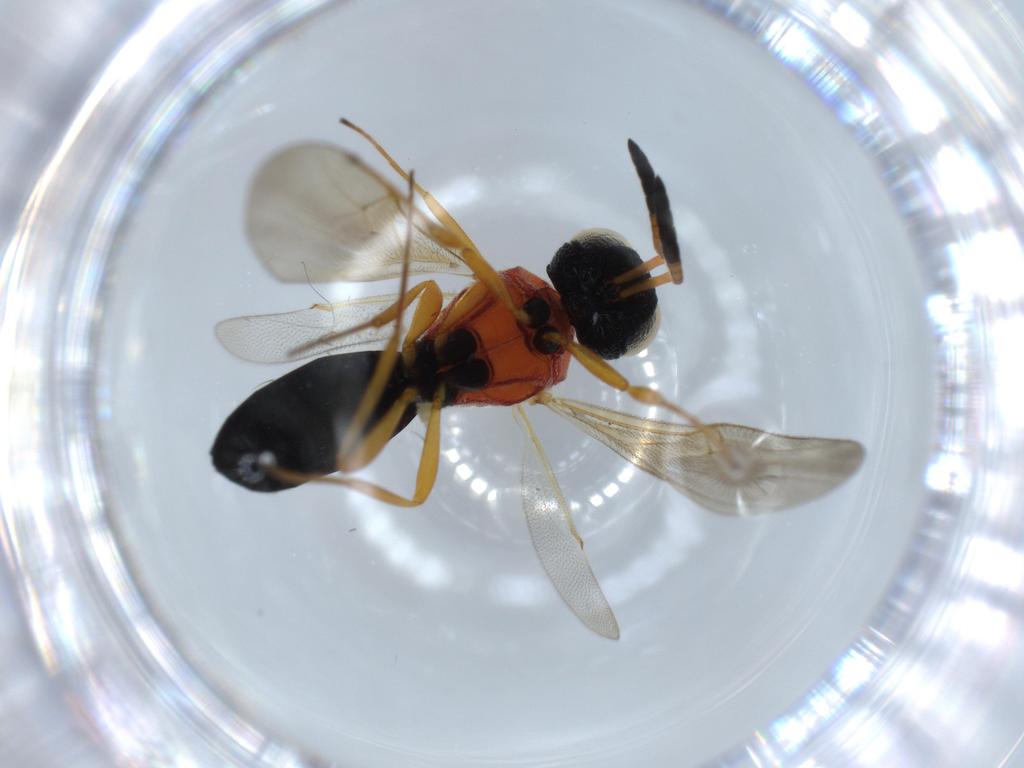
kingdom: Animalia
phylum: Arthropoda
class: Insecta
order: Hymenoptera
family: Scelionidae
